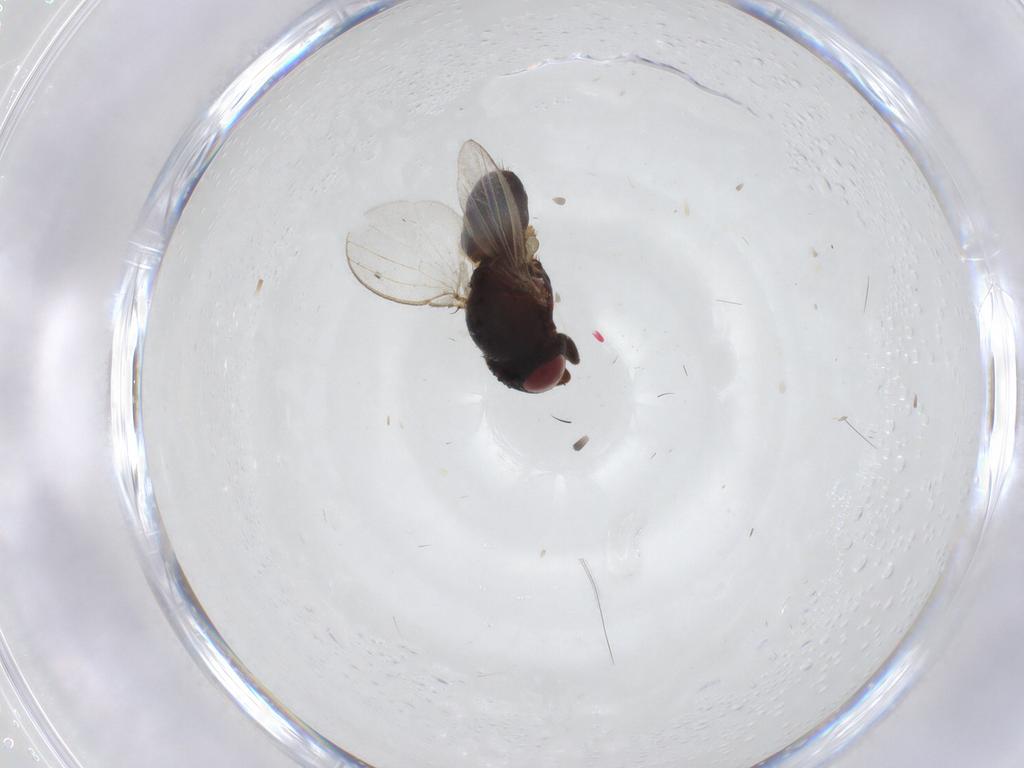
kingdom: Animalia
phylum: Arthropoda
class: Insecta
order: Diptera
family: Milichiidae
